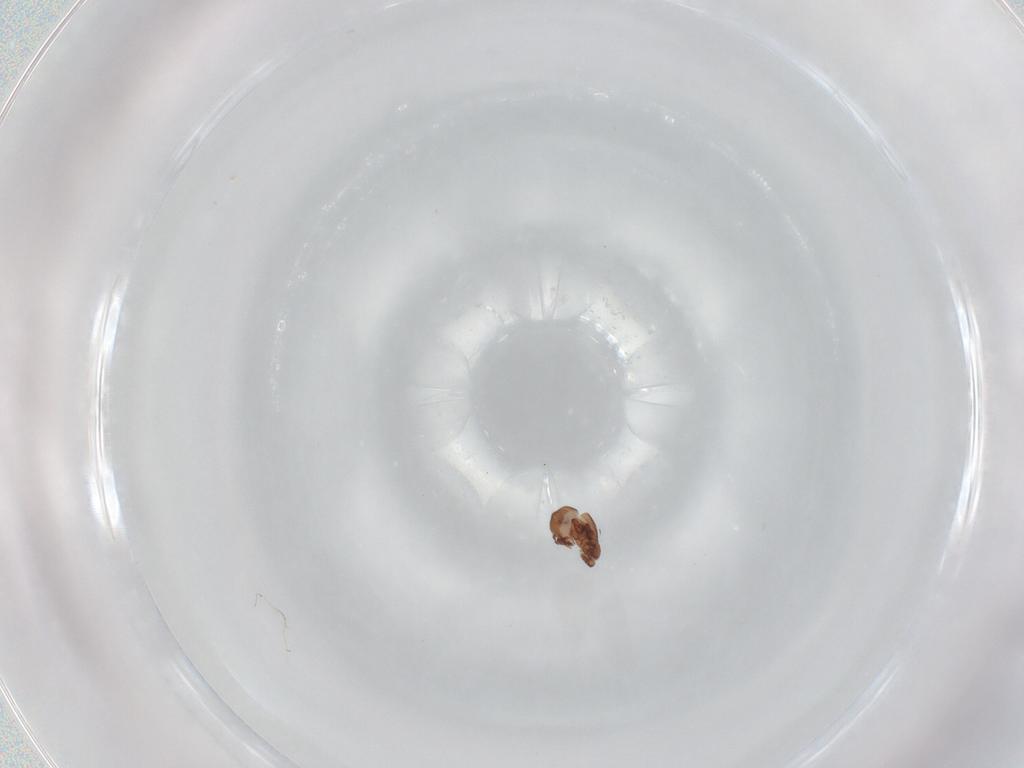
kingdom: Animalia
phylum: Arthropoda
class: Arachnida
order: Sarcoptiformes
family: Eremaeidae
